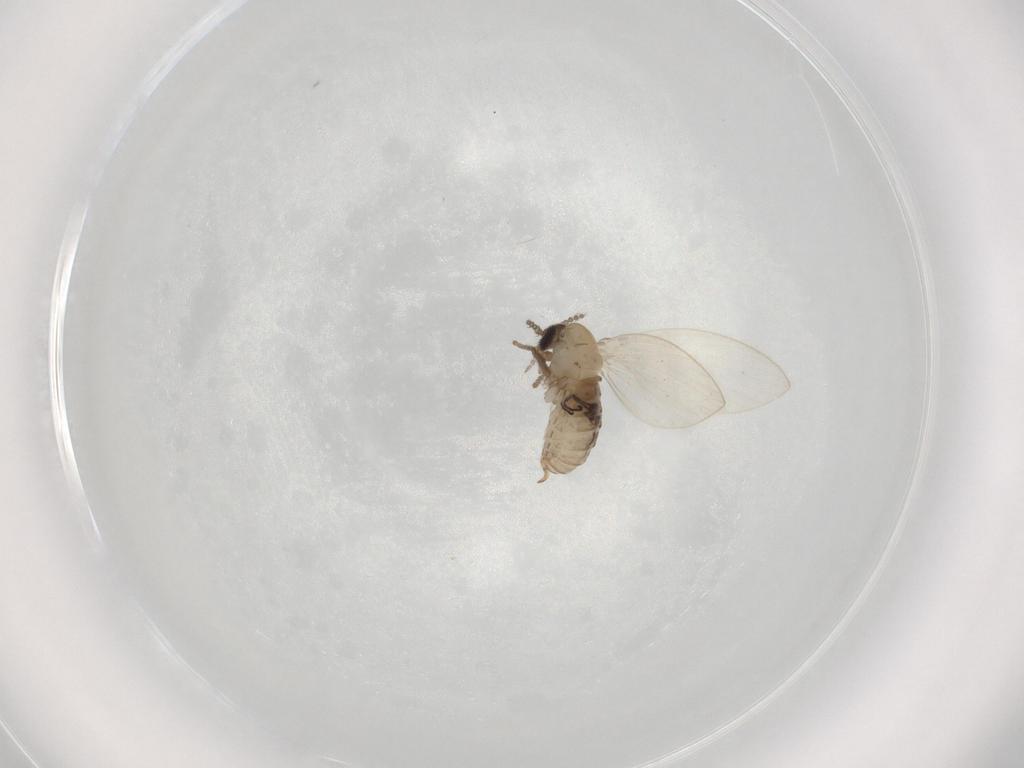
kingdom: Animalia
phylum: Arthropoda
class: Insecta
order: Diptera
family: Psychodidae
